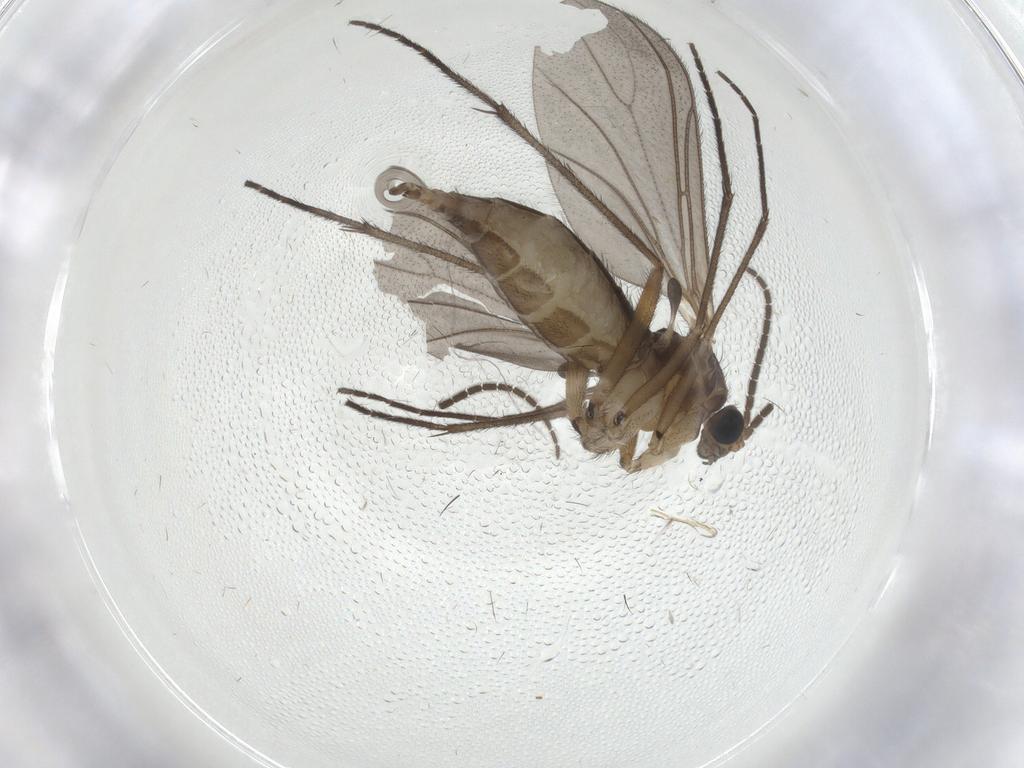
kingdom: Animalia
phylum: Arthropoda
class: Insecta
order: Diptera
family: Sciaridae
